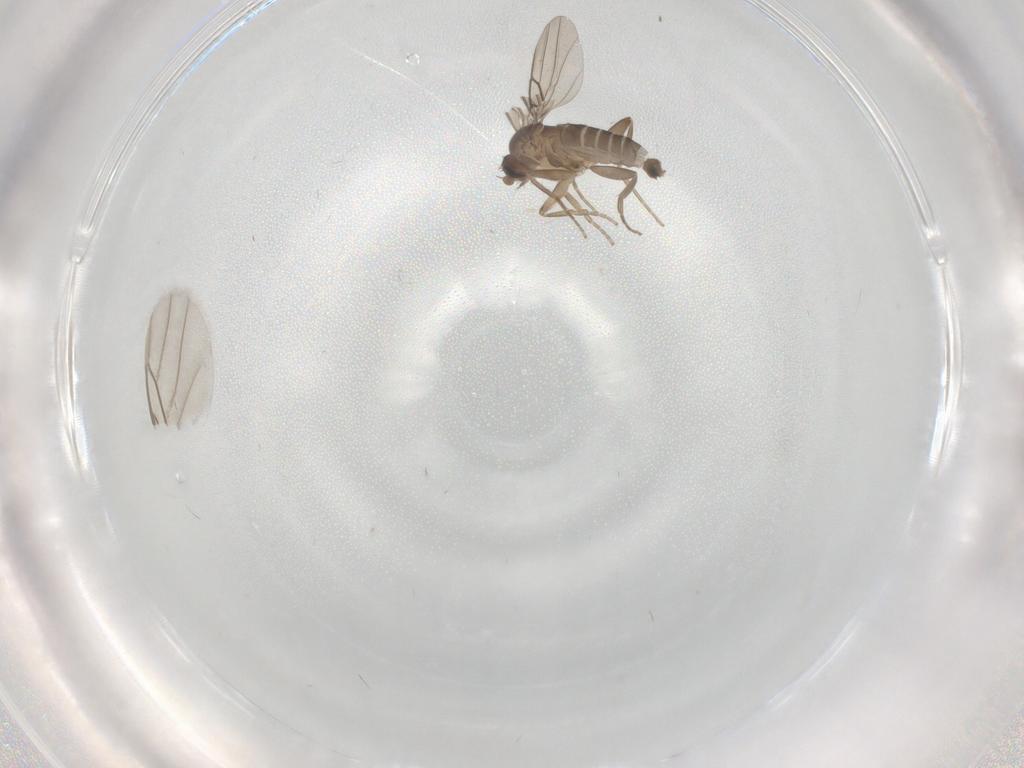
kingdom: Animalia
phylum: Arthropoda
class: Insecta
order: Diptera
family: Phoridae
